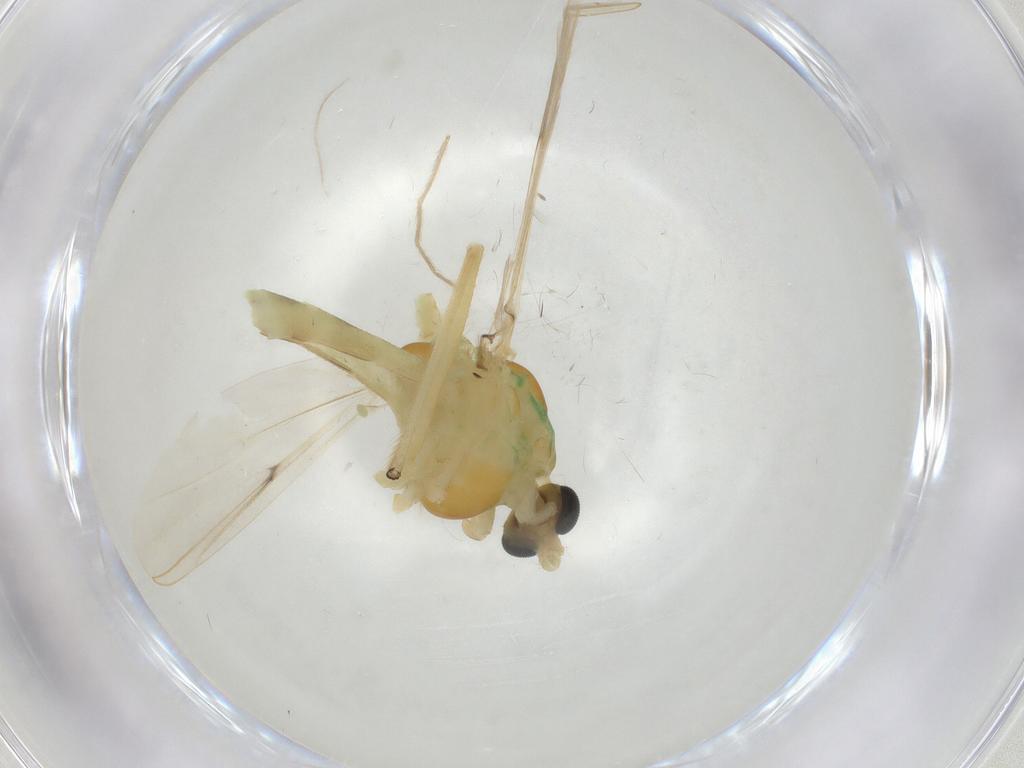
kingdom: Animalia
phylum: Arthropoda
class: Insecta
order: Diptera
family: Chironomidae
